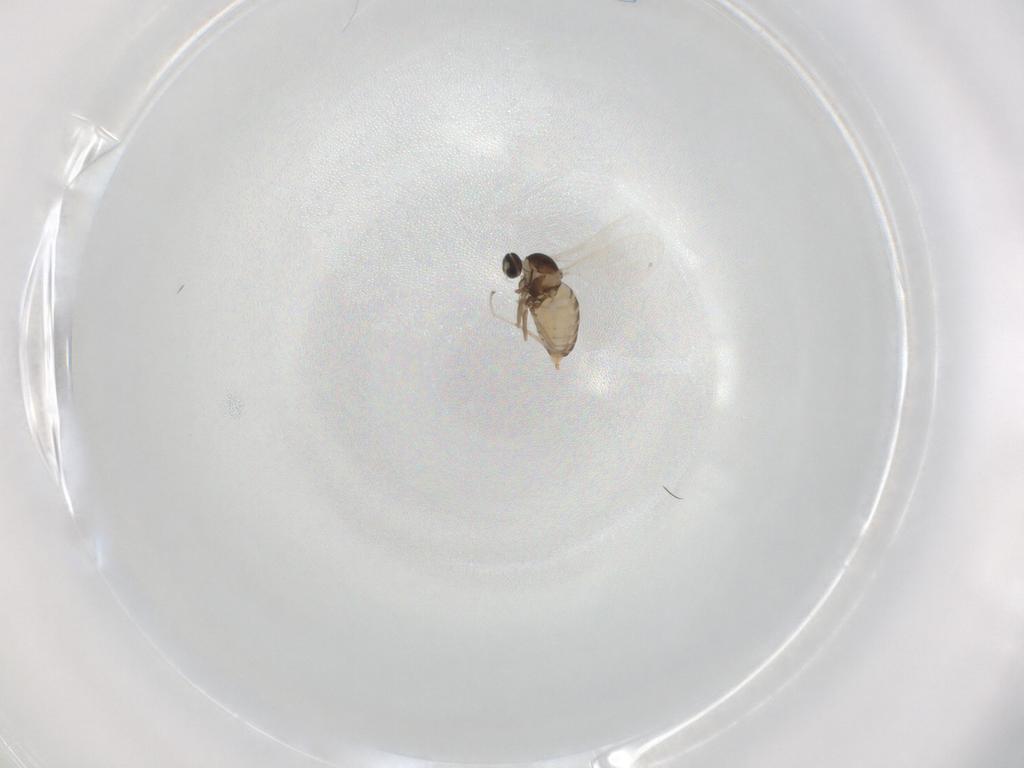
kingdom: Animalia
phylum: Arthropoda
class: Insecta
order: Diptera
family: Cecidomyiidae
